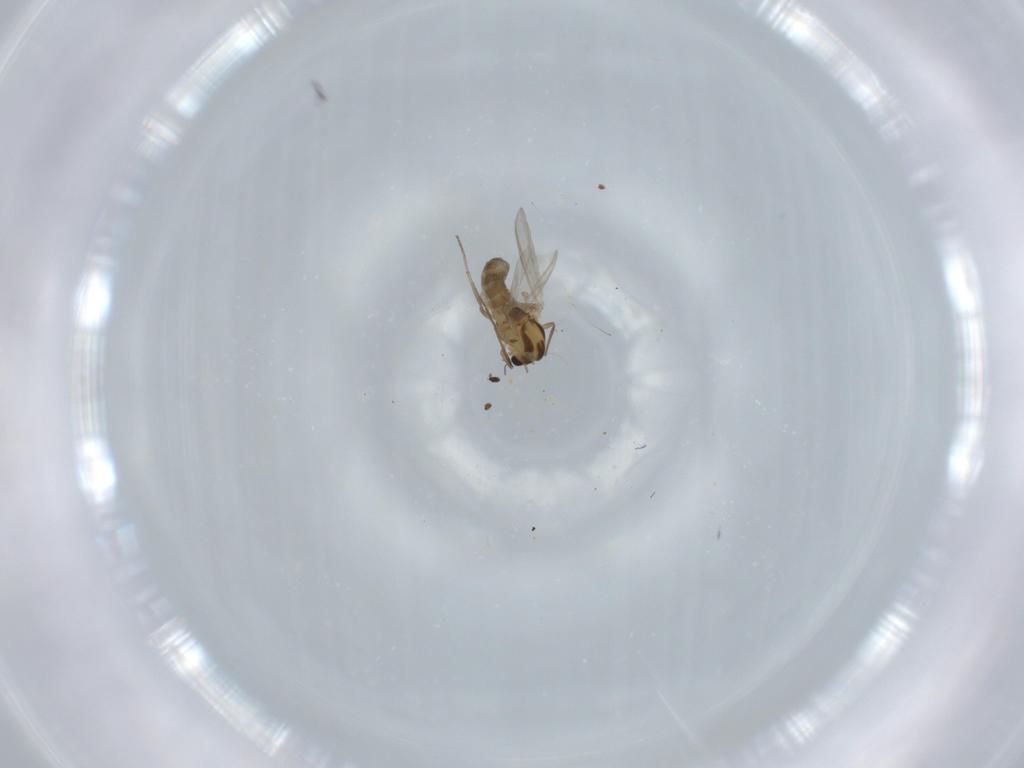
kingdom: Animalia
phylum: Arthropoda
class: Insecta
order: Diptera
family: Chironomidae
